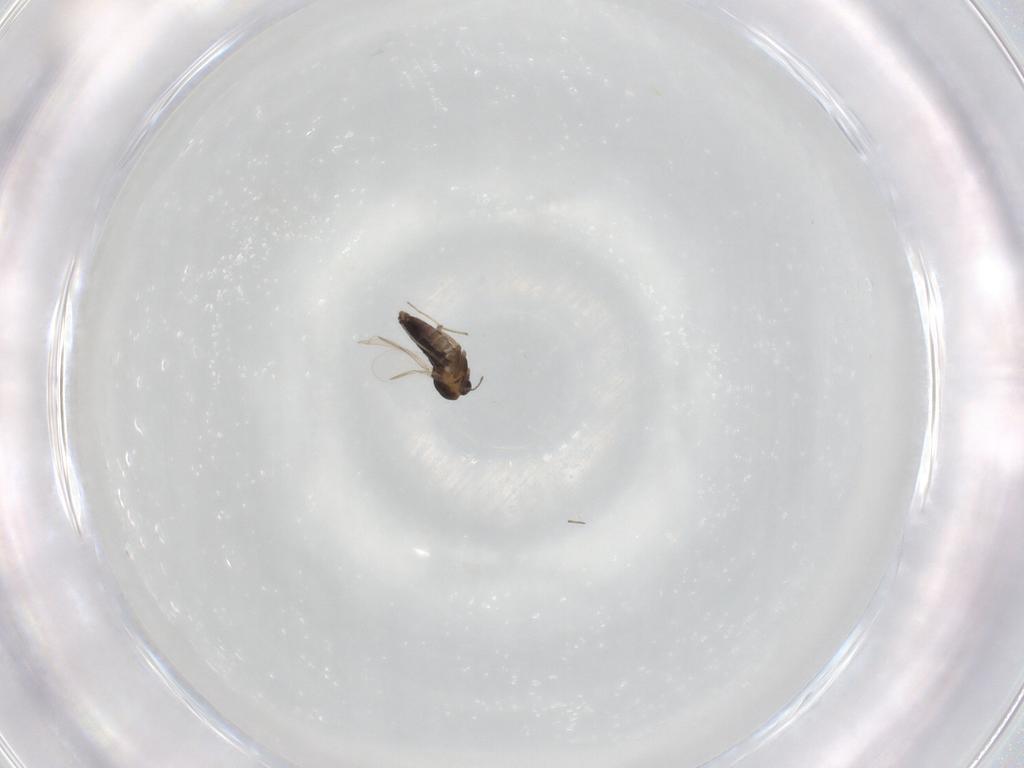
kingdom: Animalia
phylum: Arthropoda
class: Insecta
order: Diptera
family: Chironomidae
